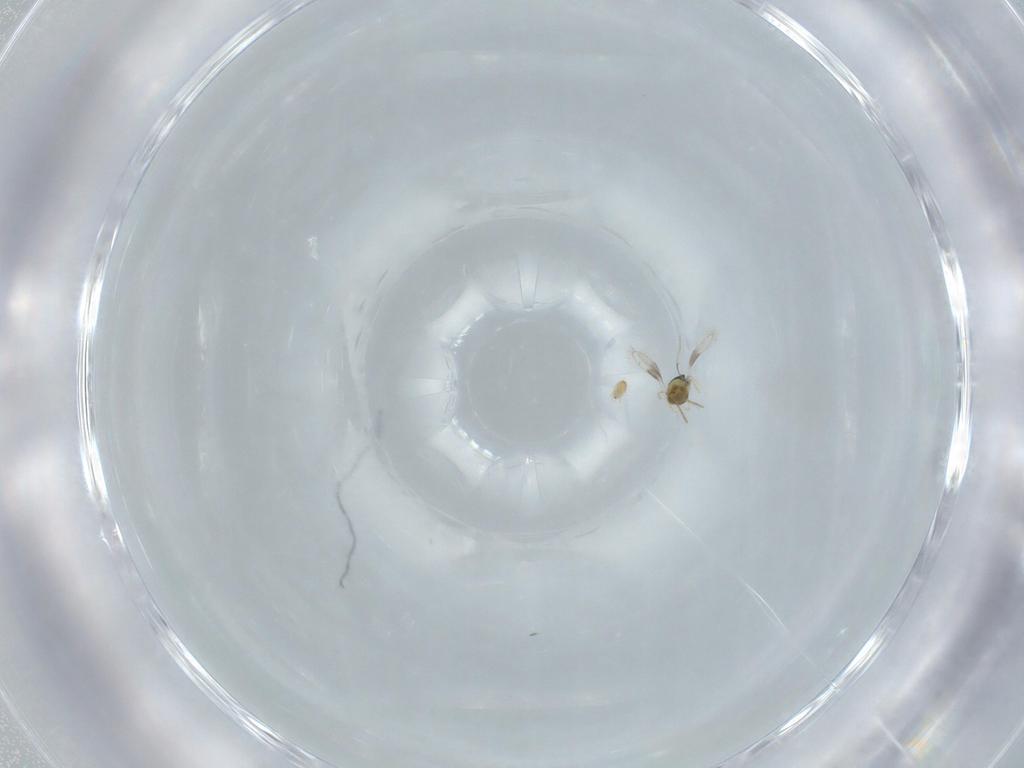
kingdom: Animalia
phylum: Arthropoda
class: Insecta
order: Hymenoptera
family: Aphelinidae
